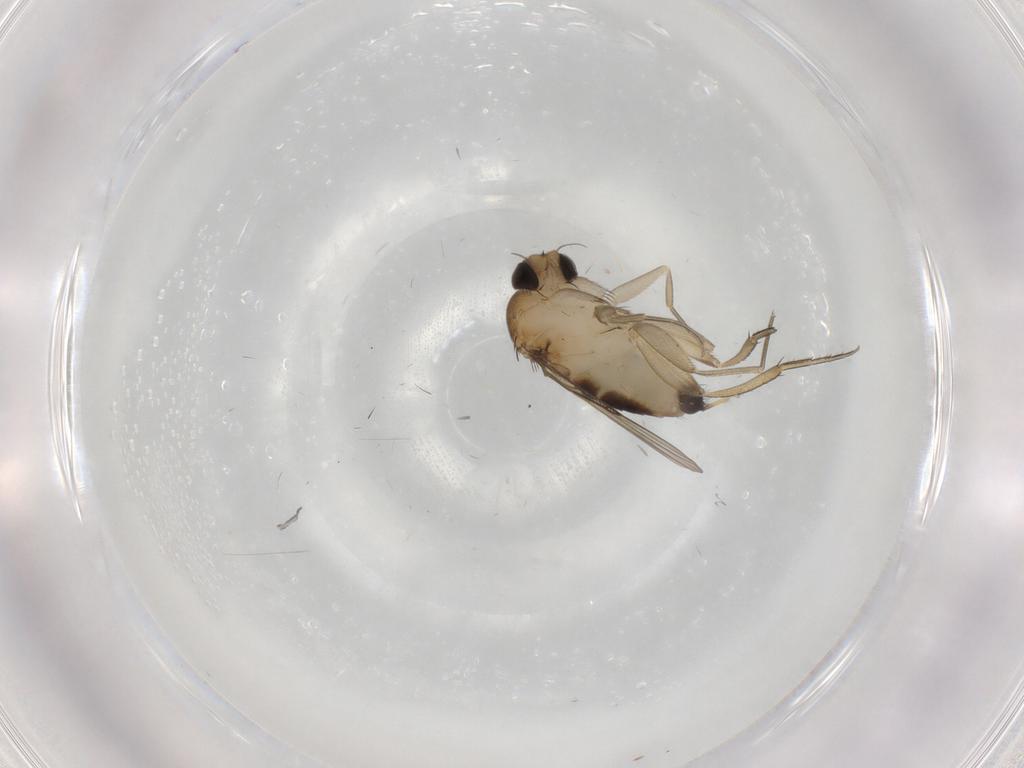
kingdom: Animalia
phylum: Arthropoda
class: Insecta
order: Diptera
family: Phoridae
